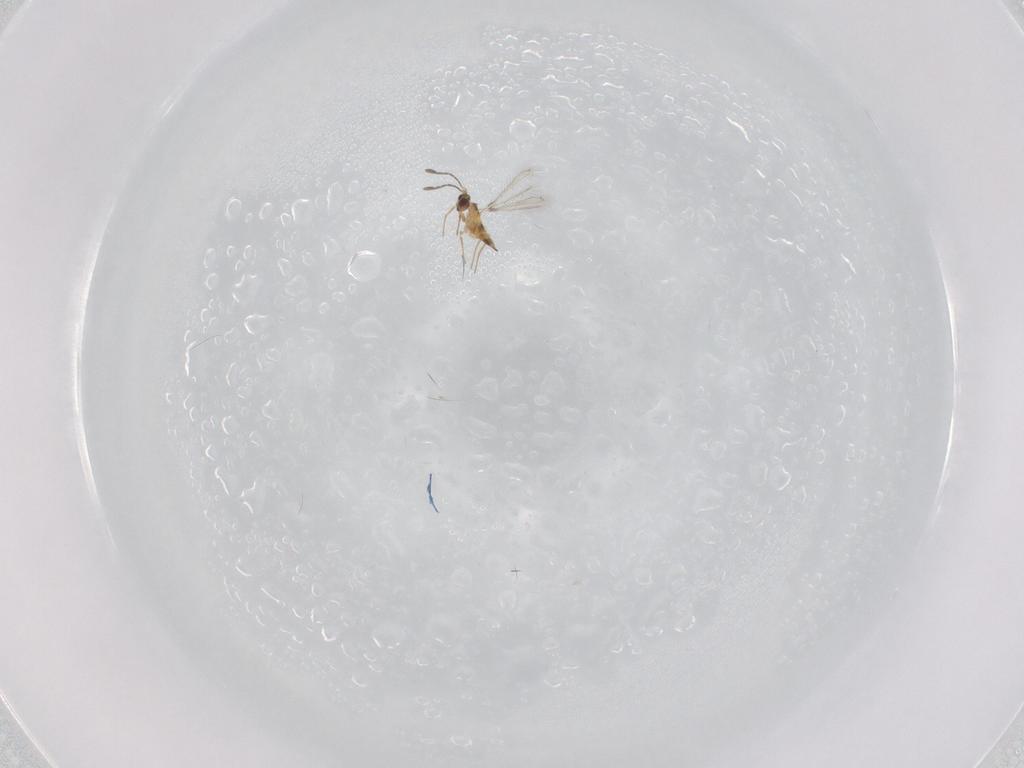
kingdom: Animalia
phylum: Arthropoda
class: Insecta
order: Hymenoptera
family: Mymaridae
